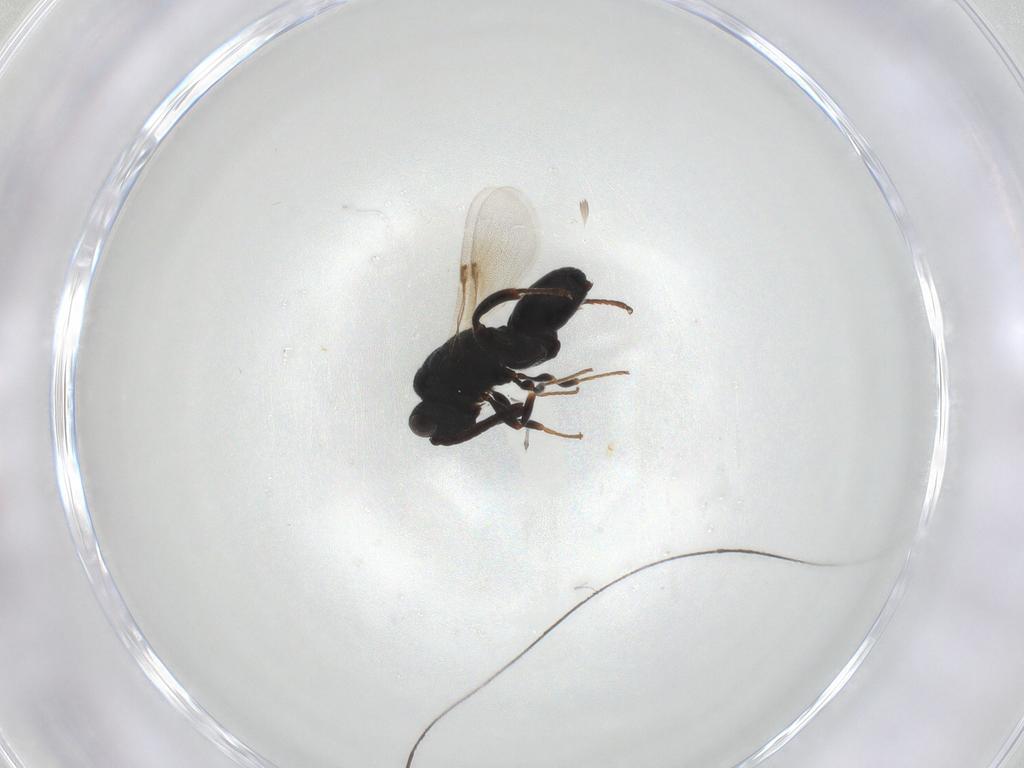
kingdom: Animalia
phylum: Arthropoda
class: Insecta
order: Hymenoptera
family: Chalcididae
